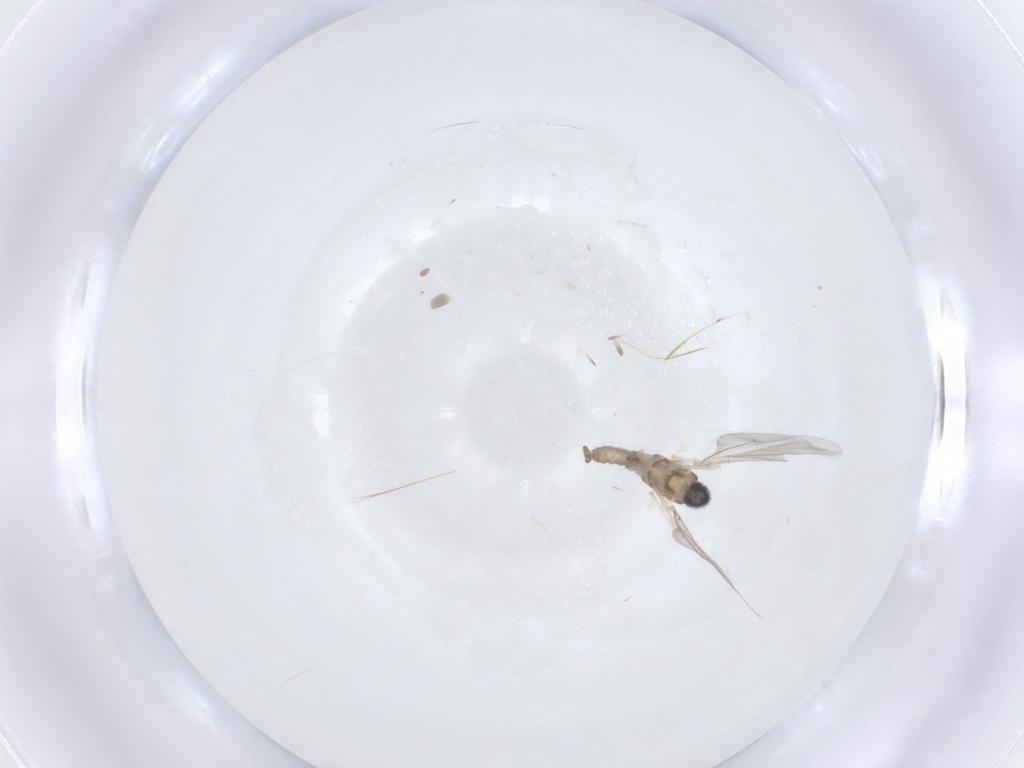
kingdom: Animalia
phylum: Arthropoda
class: Insecta
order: Diptera
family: Cecidomyiidae
